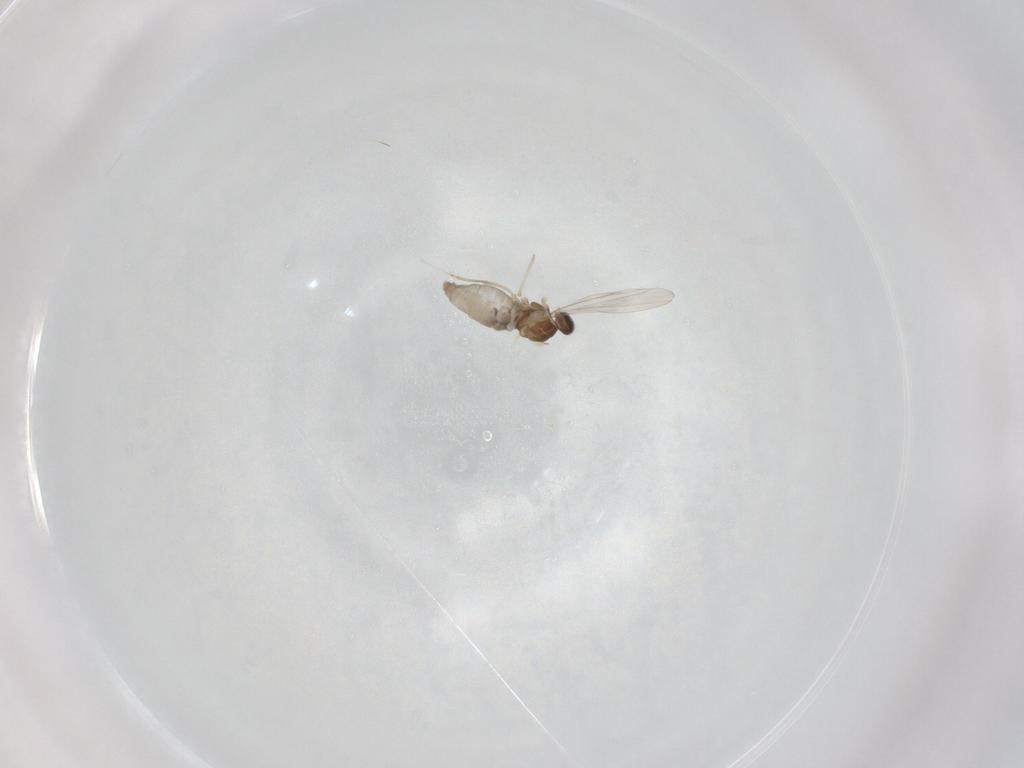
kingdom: Animalia
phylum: Arthropoda
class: Insecta
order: Diptera
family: Cecidomyiidae
